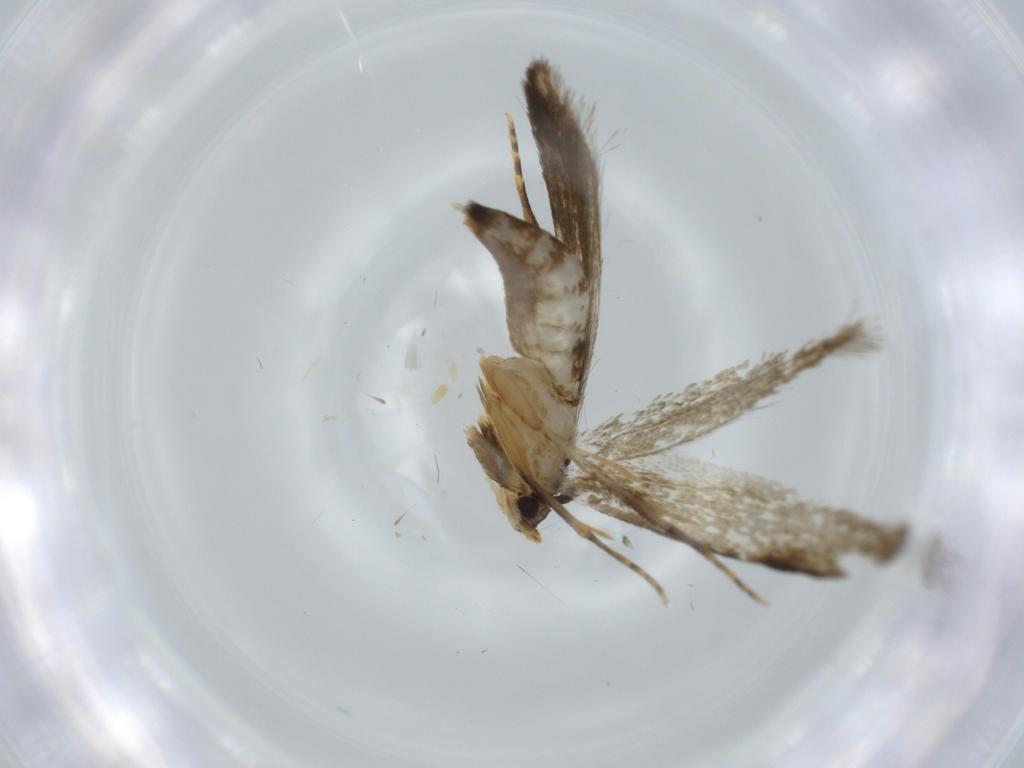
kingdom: Animalia
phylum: Arthropoda
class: Insecta
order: Lepidoptera
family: Tineidae
